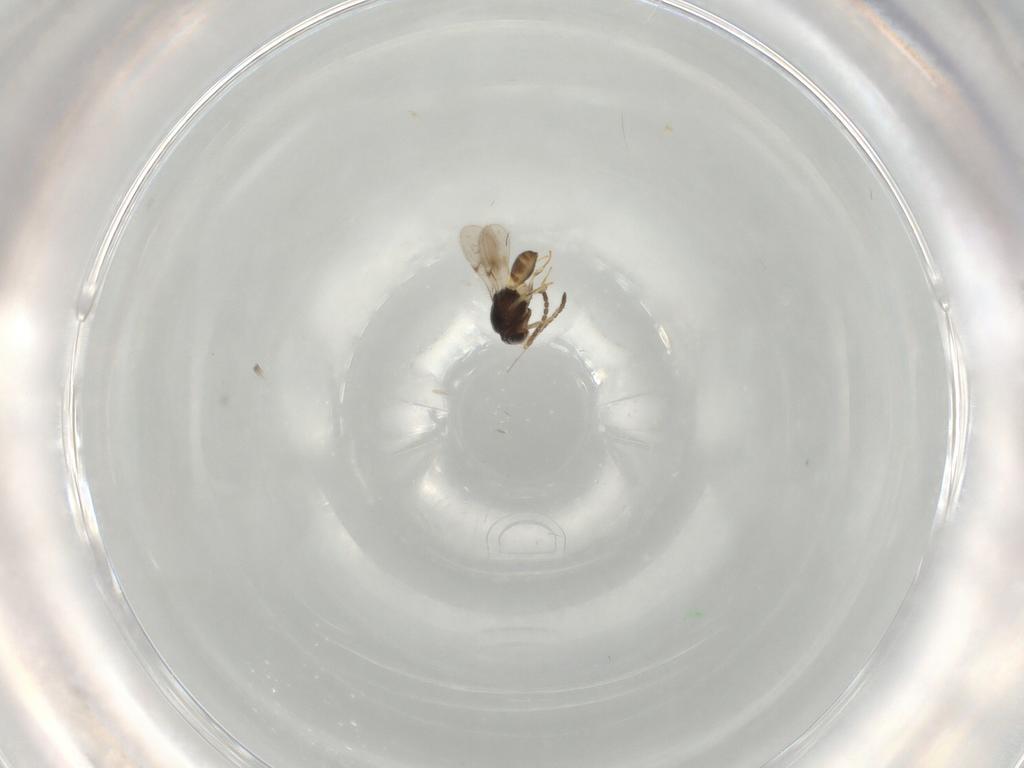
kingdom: Animalia
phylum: Arthropoda
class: Insecta
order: Hymenoptera
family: Scelionidae
